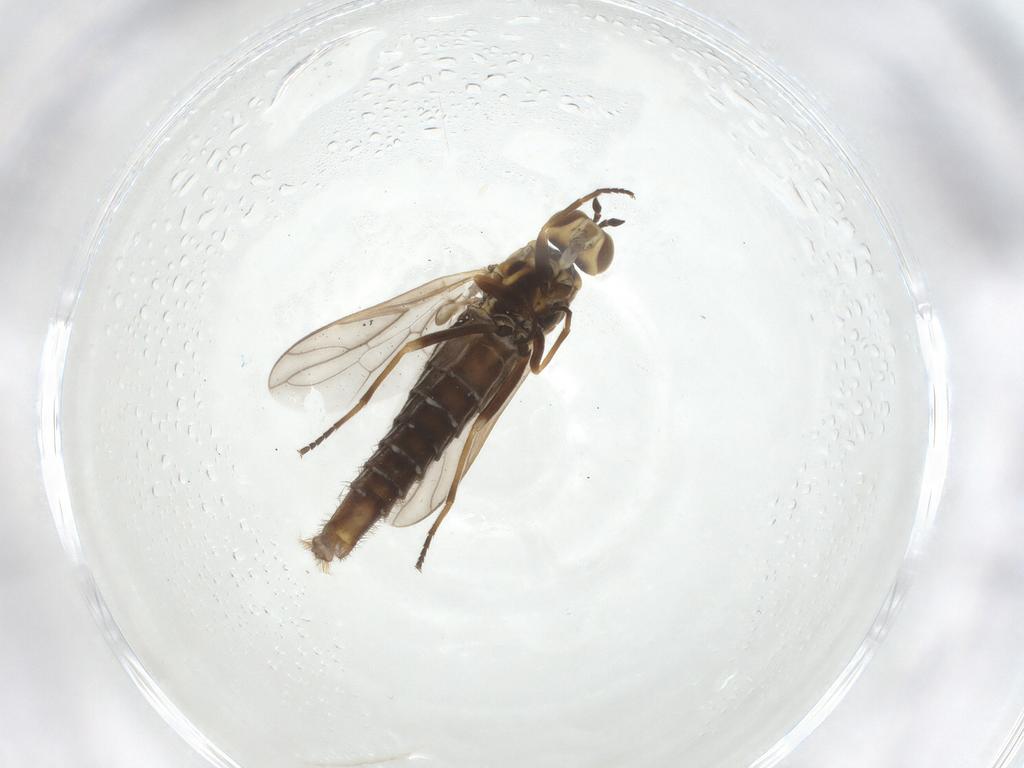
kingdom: Animalia
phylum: Arthropoda
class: Insecta
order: Diptera
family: Scenopinidae
